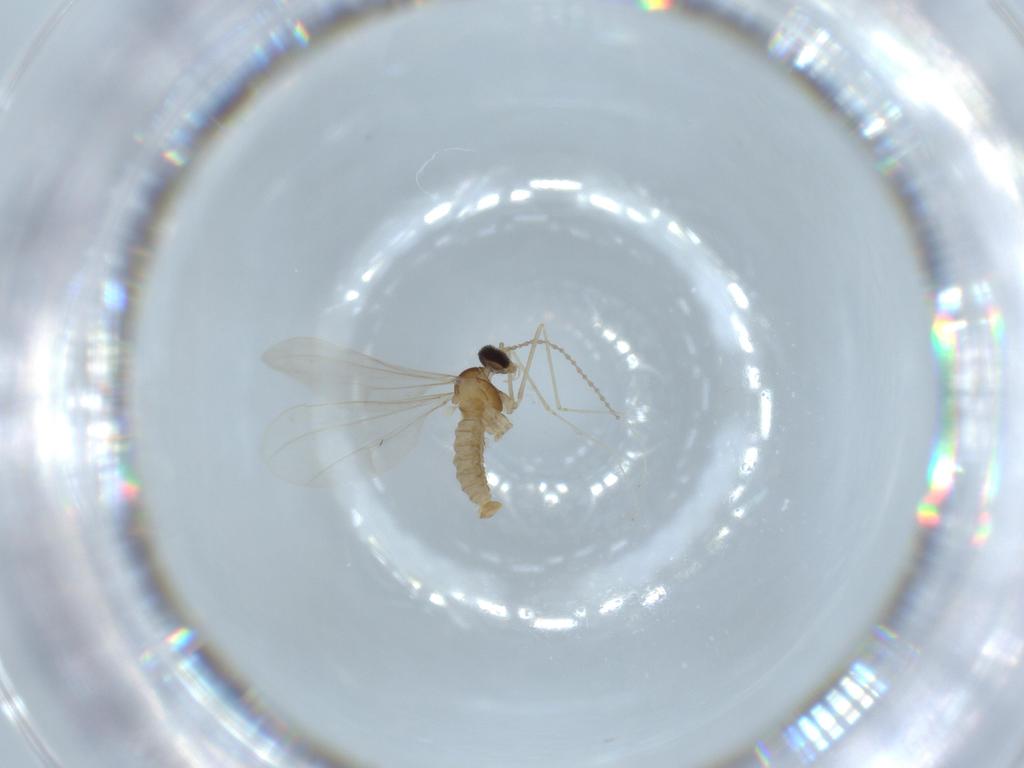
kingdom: Animalia
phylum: Arthropoda
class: Insecta
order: Diptera
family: Cecidomyiidae
